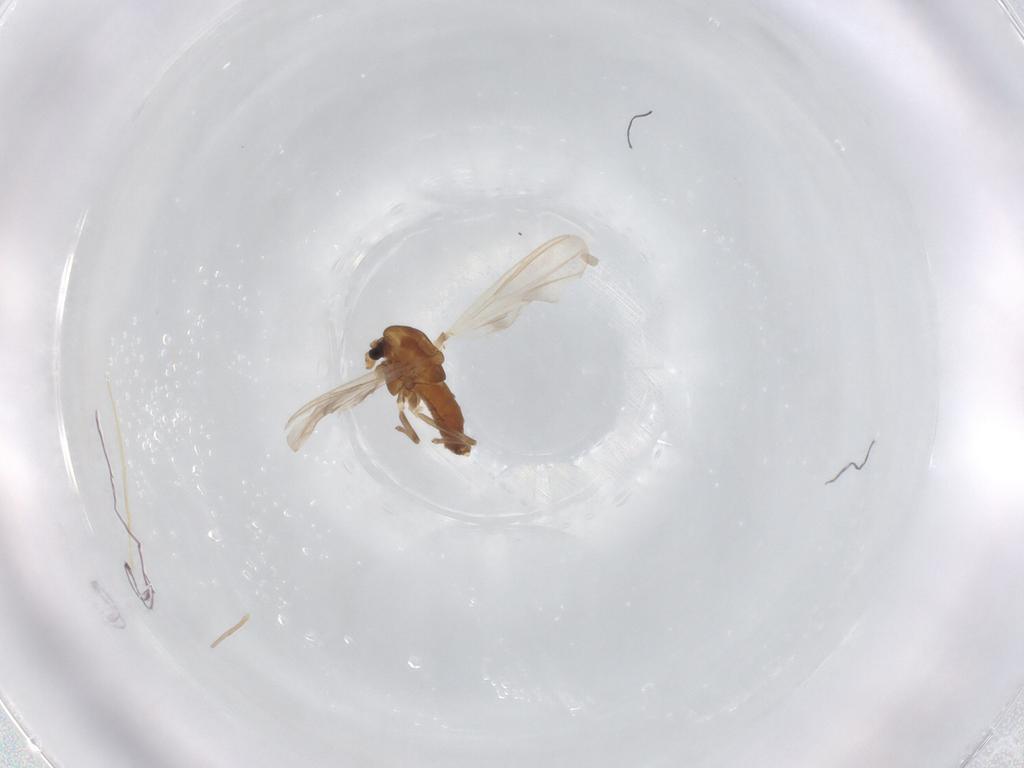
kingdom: Animalia
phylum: Arthropoda
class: Insecta
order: Diptera
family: Chironomidae
